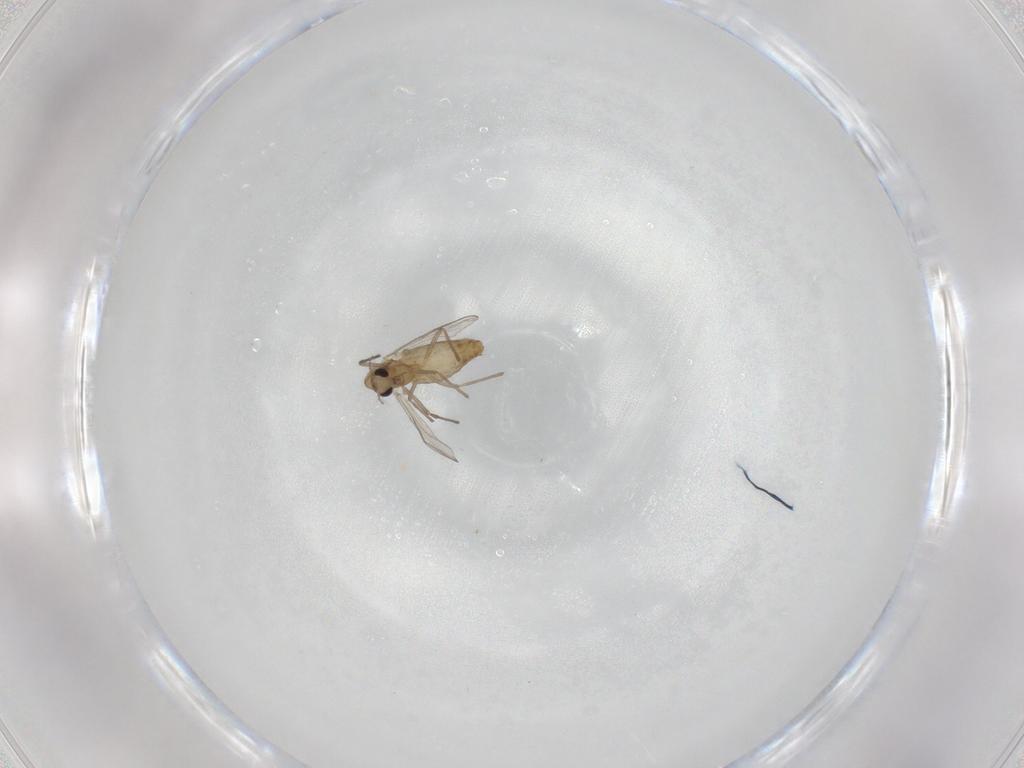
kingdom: Animalia
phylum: Arthropoda
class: Insecta
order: Diptera
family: Chironomidae
